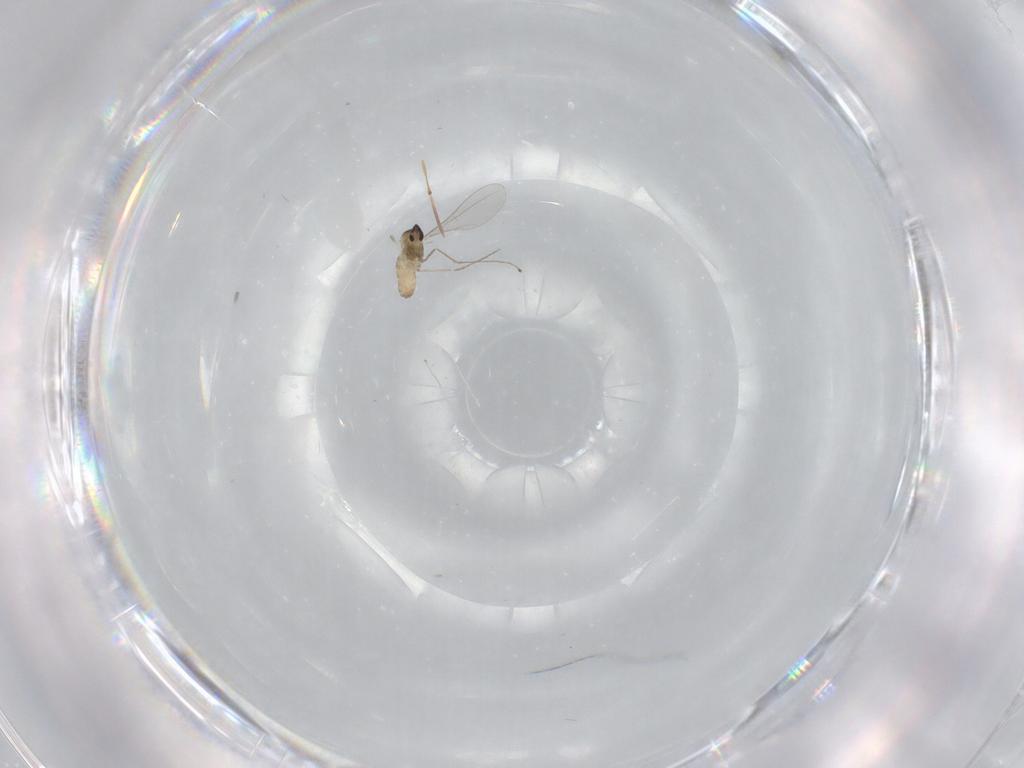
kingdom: Animalia
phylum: Arthropoda
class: Insecta
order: Diptera
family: Cecidomyiidae
